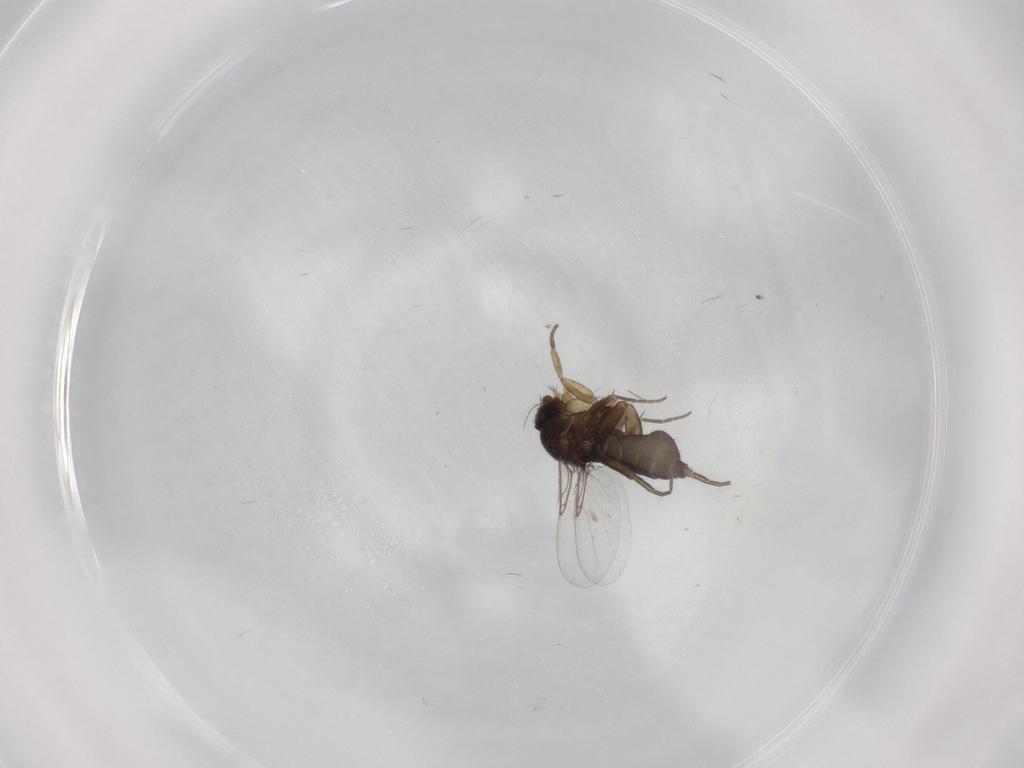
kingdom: Animalia
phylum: Arthropoda
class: Insecta
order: Diptera
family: Phoridae
